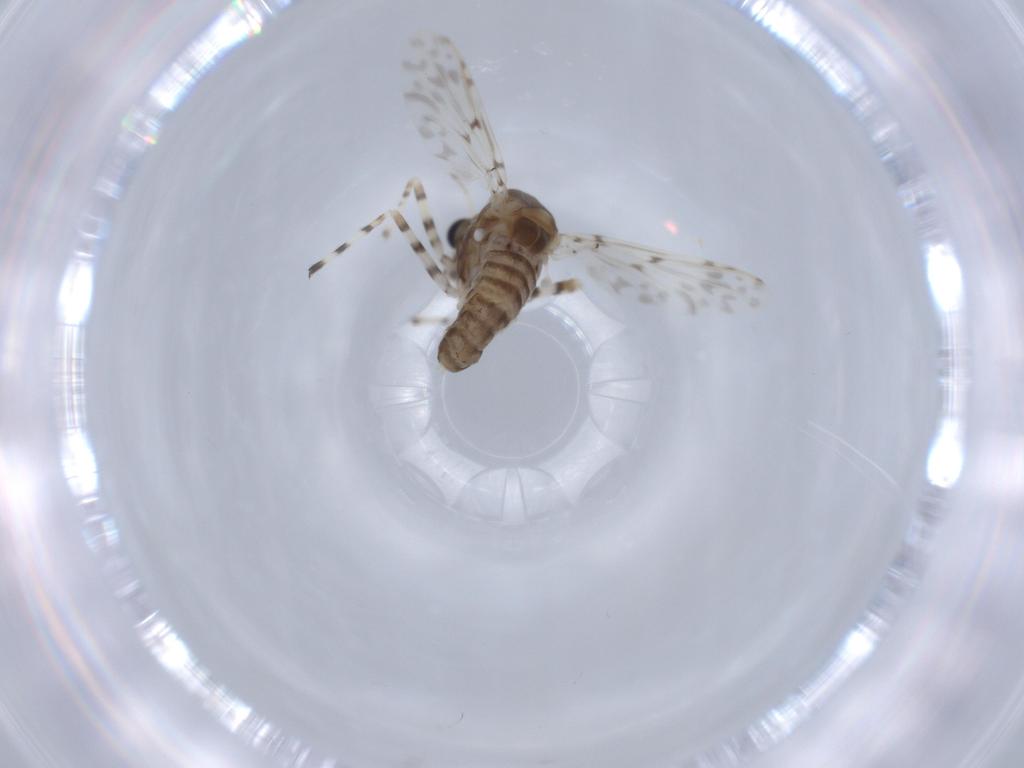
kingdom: Animalia
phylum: Arthropoda
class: Insecta
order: Diptera
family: Chironomidae
